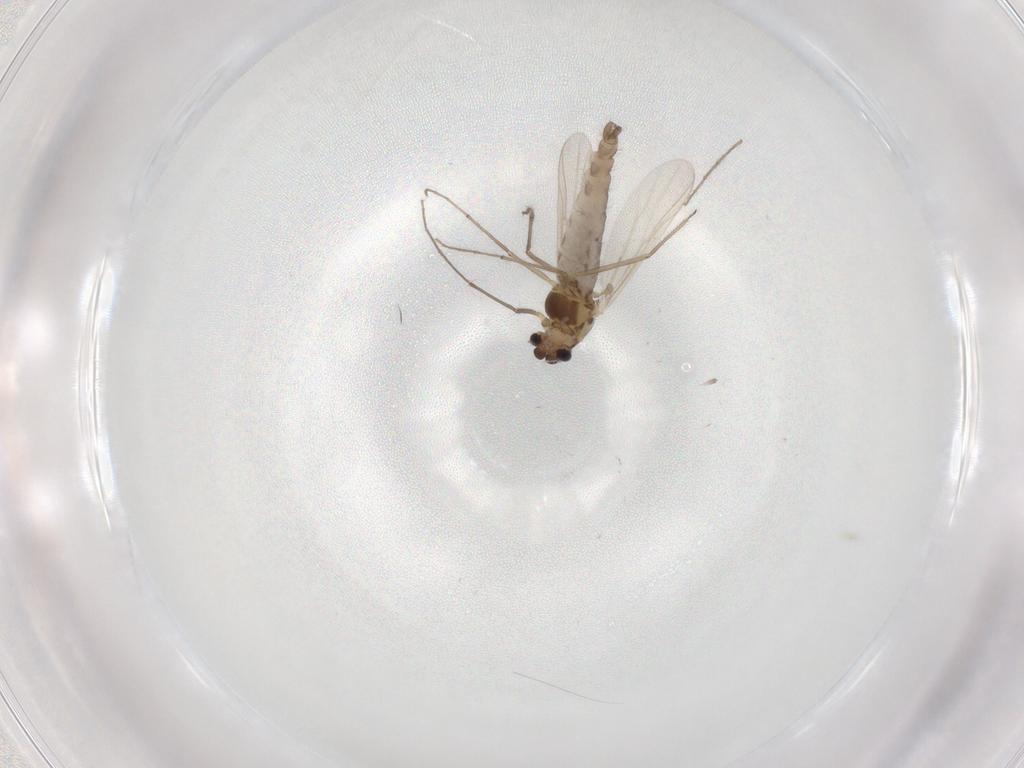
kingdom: Animalia
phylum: Arthropoda
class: Insecta
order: Diptera
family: Chironomidae
